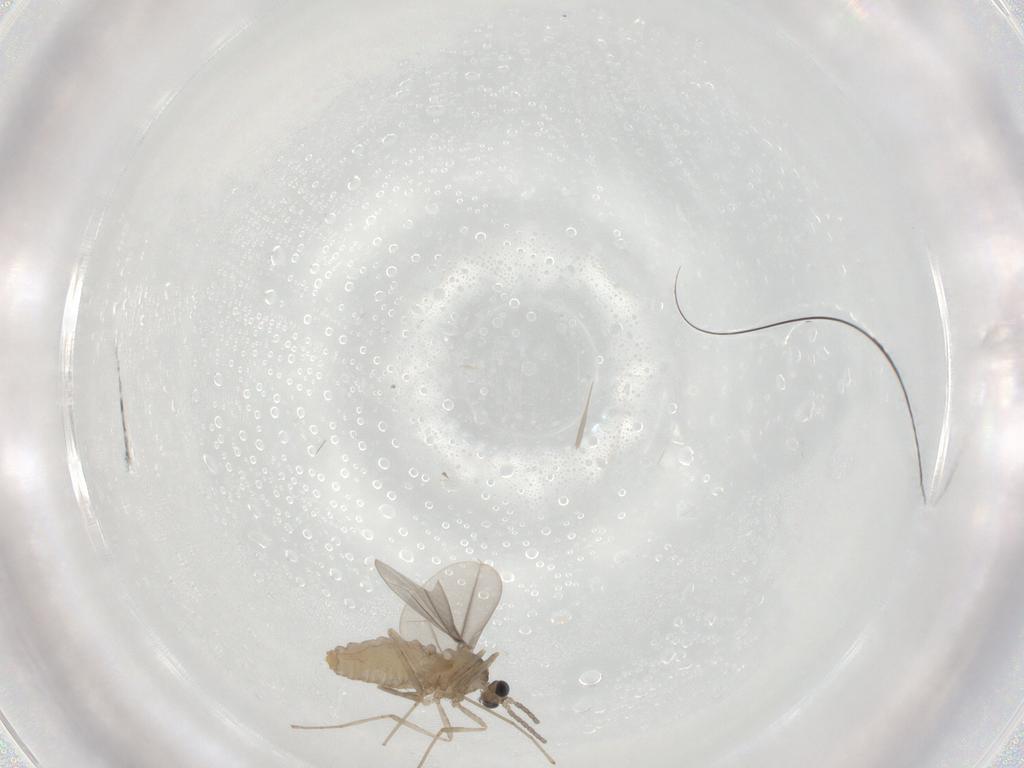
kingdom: Animalia
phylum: Arthropoda
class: Insecta
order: Diptera
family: Cecidomyiidae
